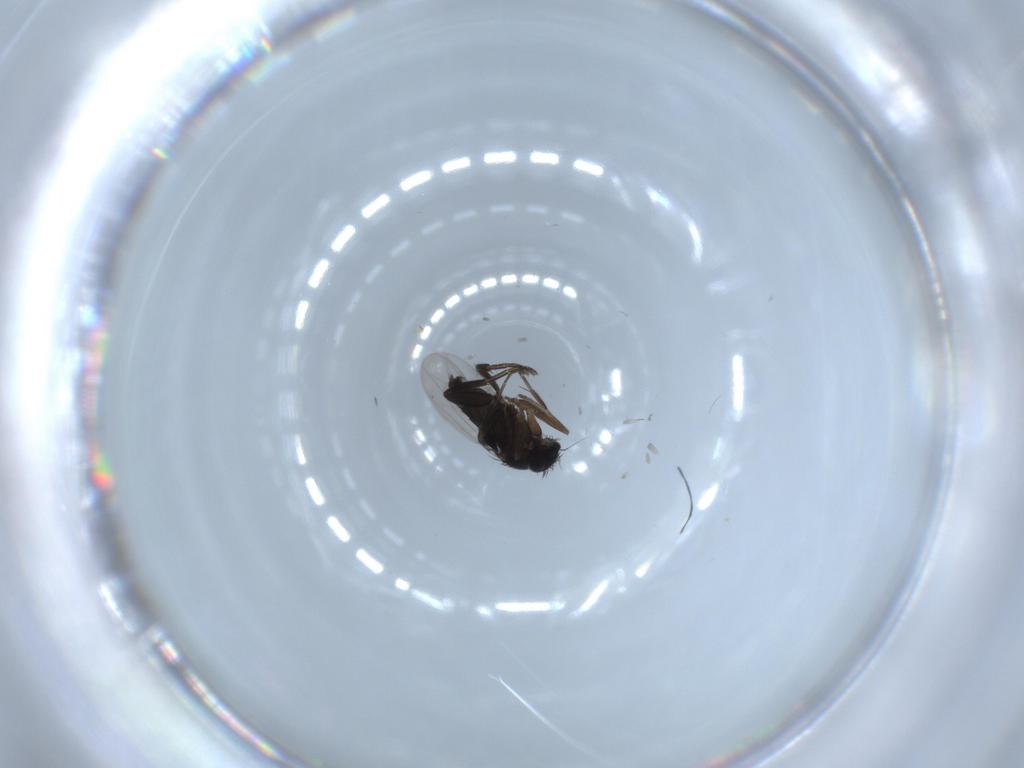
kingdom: Animalia
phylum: Arthropoda
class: Insecta
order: Diptera
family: Phoridae
